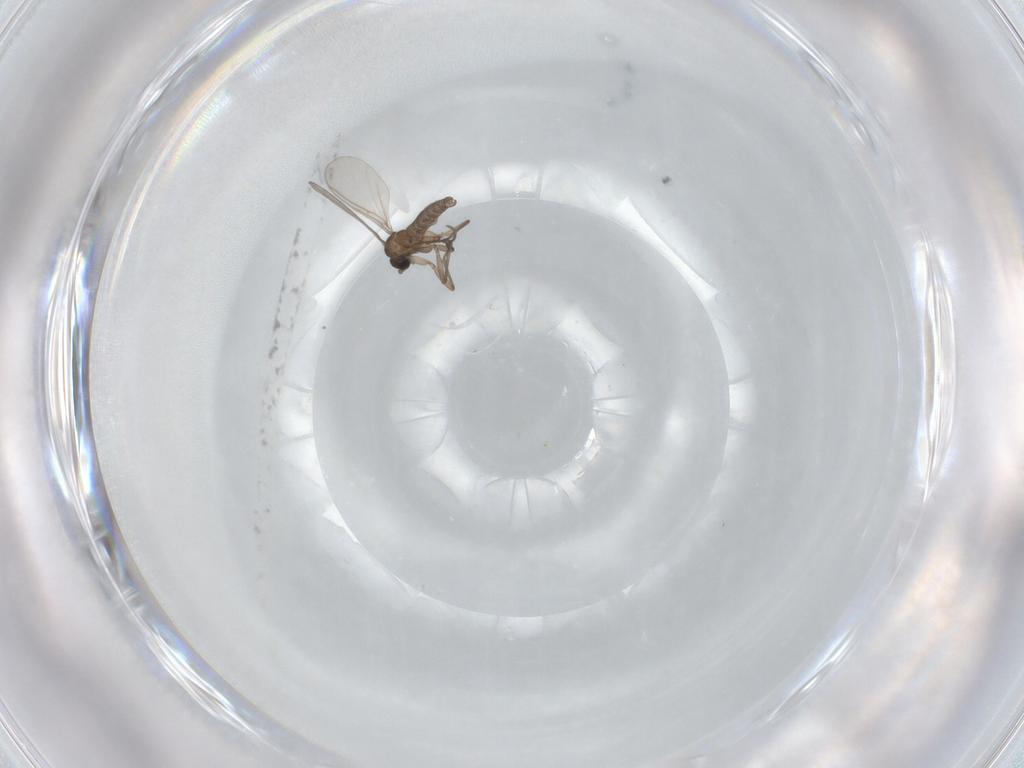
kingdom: Animalia
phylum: Arthropoda
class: Insecta
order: Diptera
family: Sciaridae
